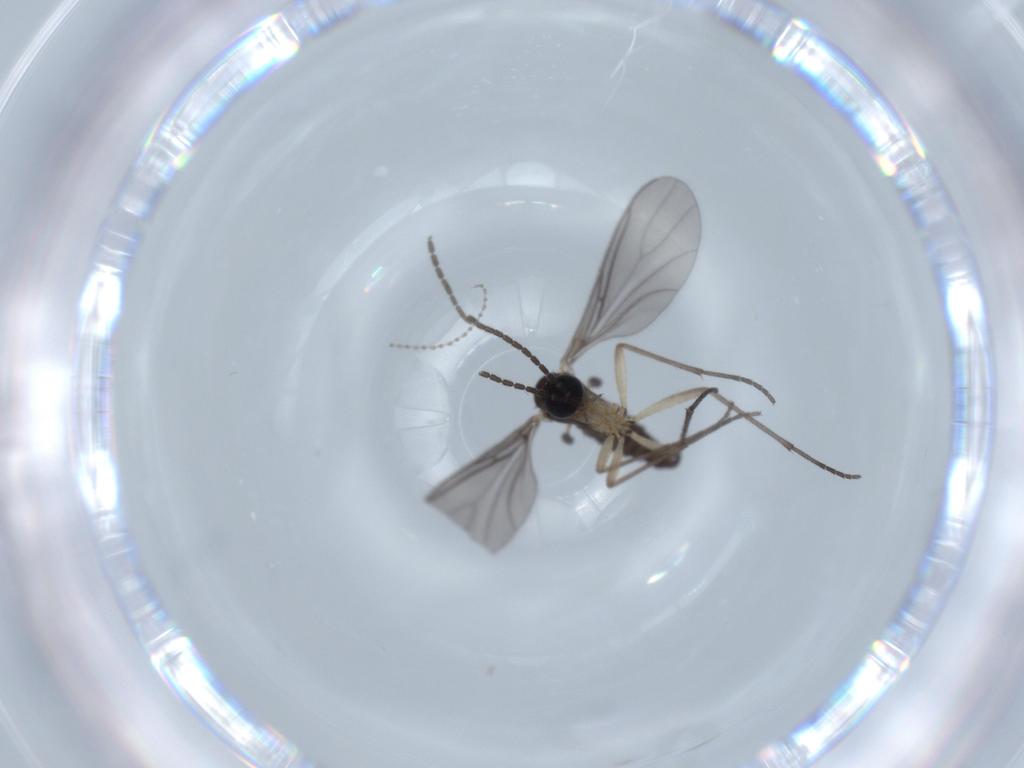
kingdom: Animalia
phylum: Arthropoda
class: Insecta
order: Diptera
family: Sciaridae
